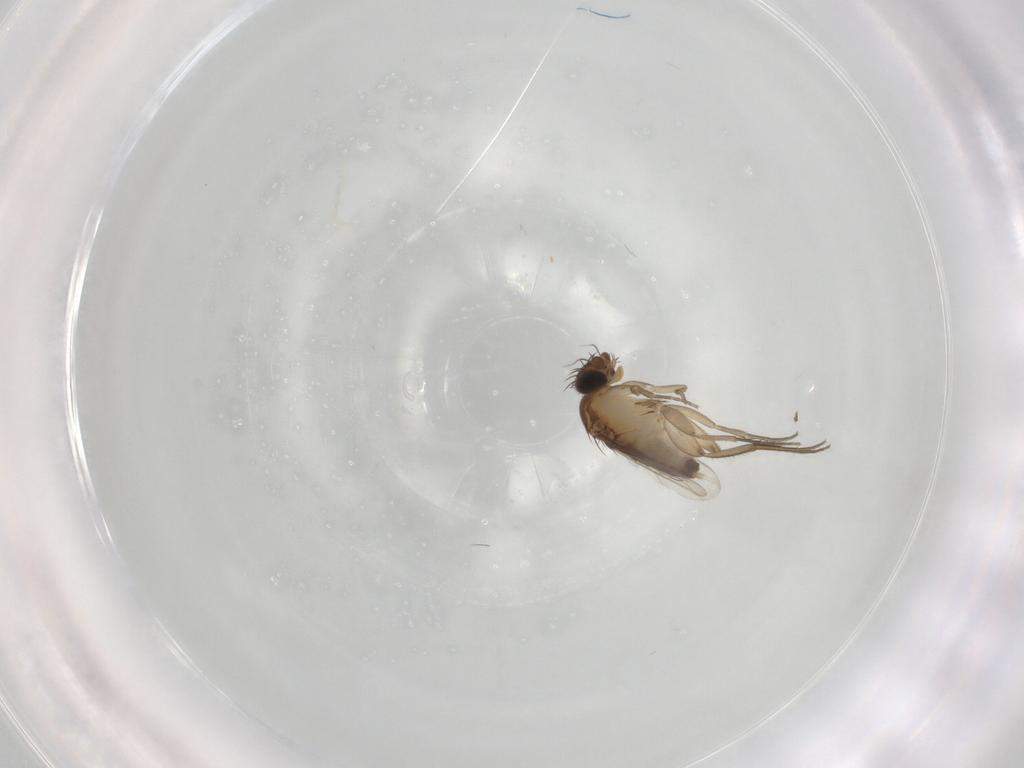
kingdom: Animalia
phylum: Arthropoda
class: Insecta
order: Diptera
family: Phoridae
